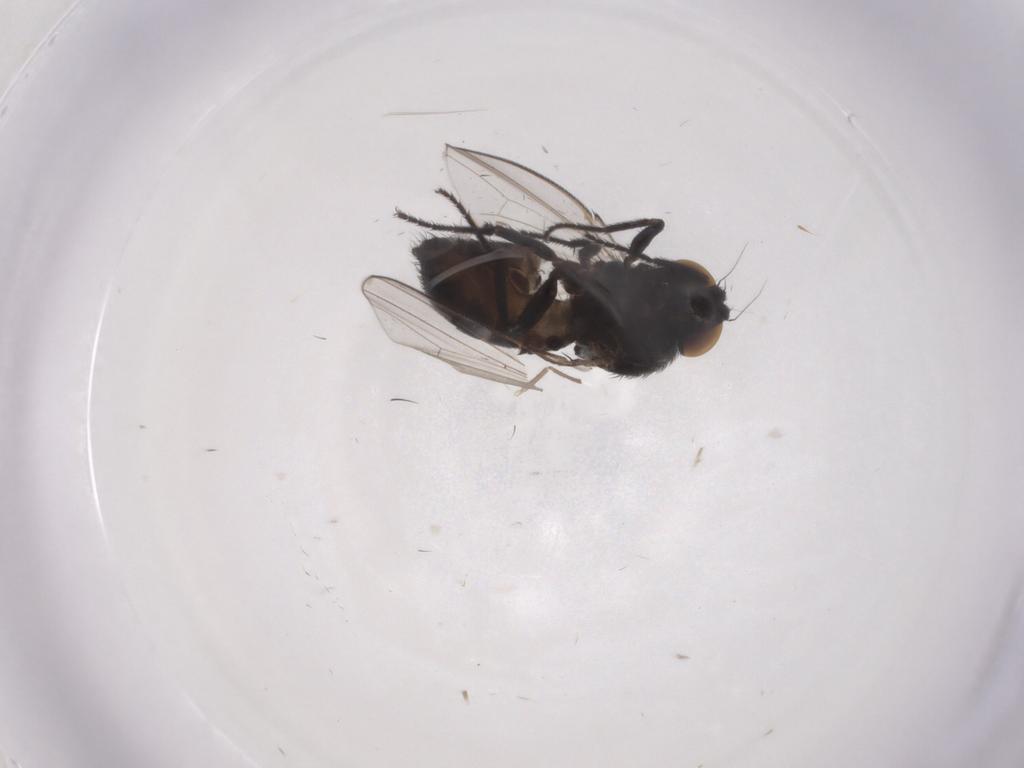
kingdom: Animalia
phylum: Arthropoda
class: Insecta
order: Diptera
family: Milichiidae
